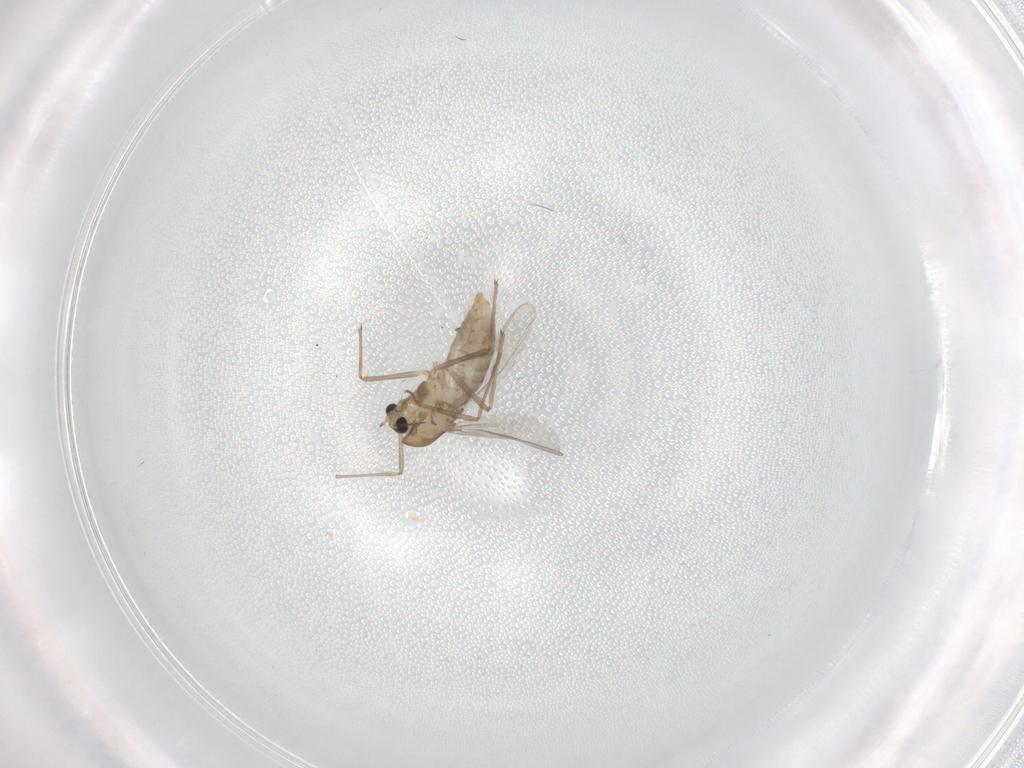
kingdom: Animalia
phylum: Arthropoda
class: Insecta
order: Diptera
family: Chironomidae
